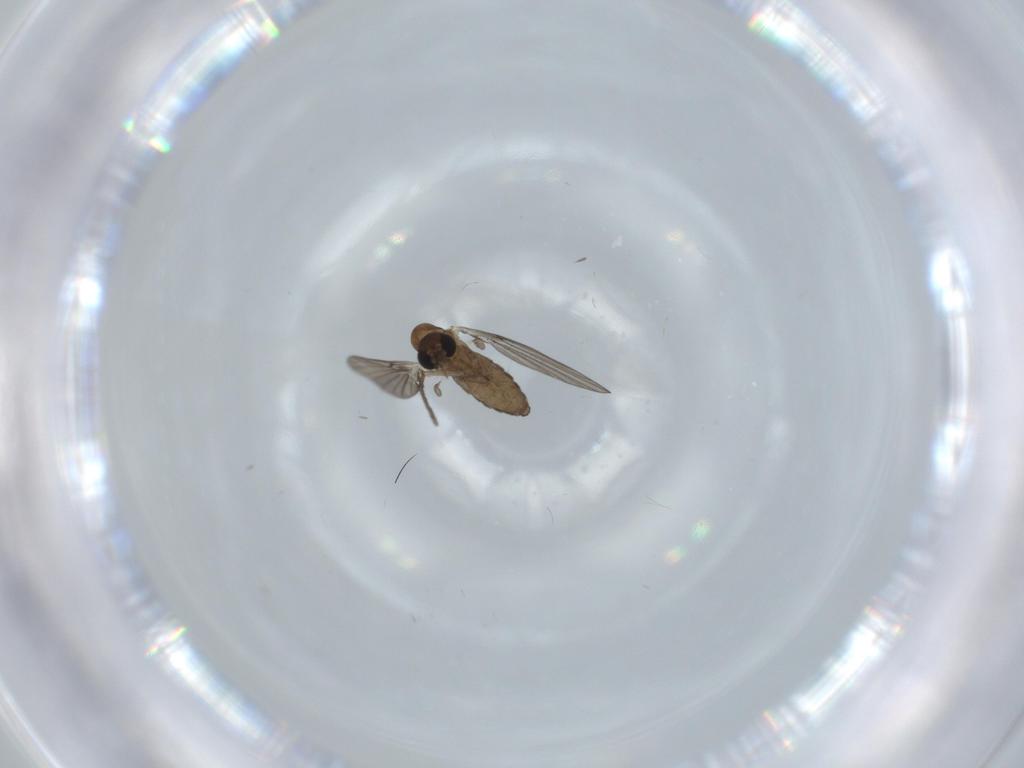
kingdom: Animalia
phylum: Arthropoda
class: Insecta
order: Diptera
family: Psychodidae
